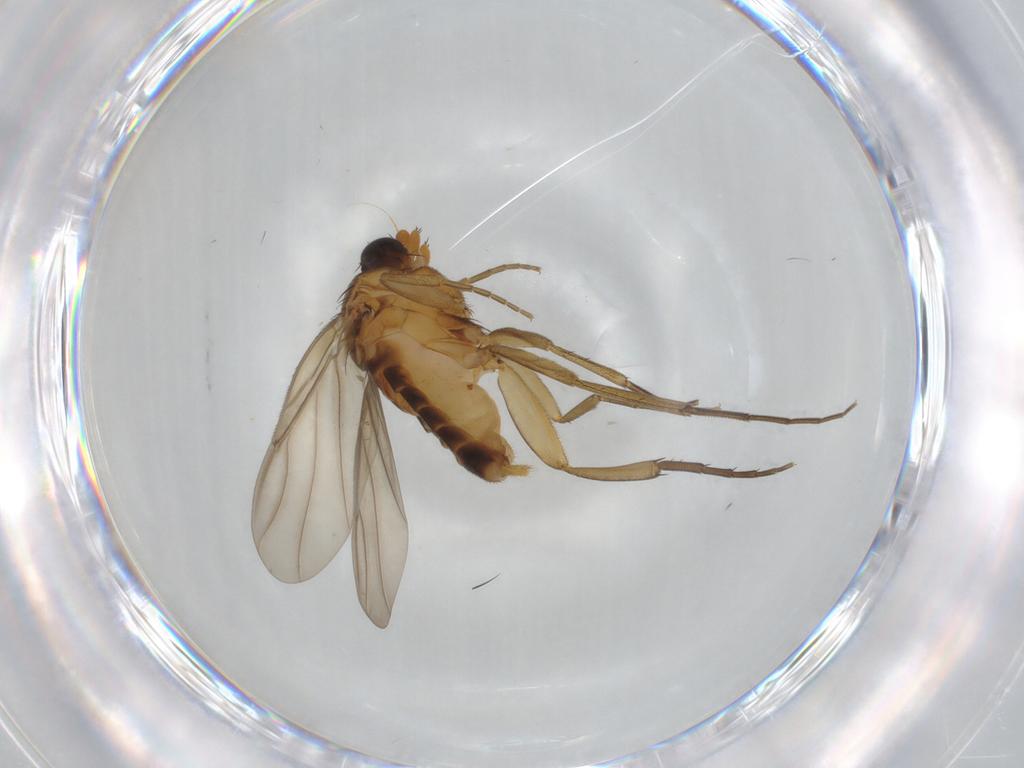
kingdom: Animalia
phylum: Arthropoda
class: Insecta
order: Diptera
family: Phoridae
